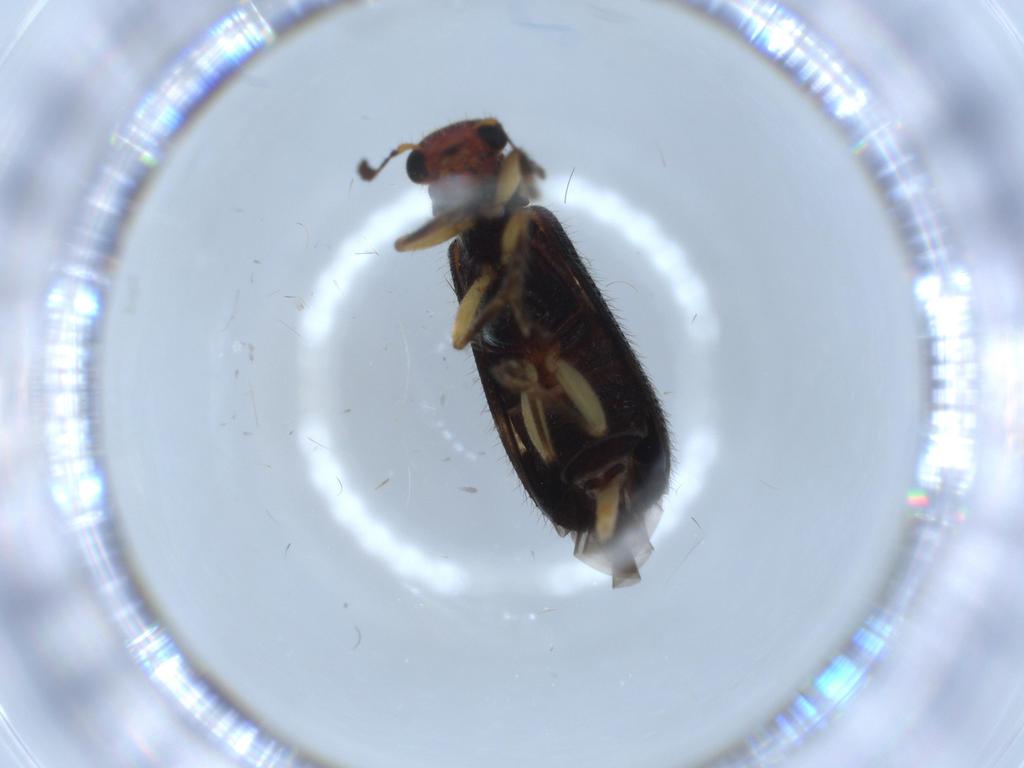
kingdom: Animalia
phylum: Arthropoda
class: Insecta
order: Coleoptera
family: Cleridae
